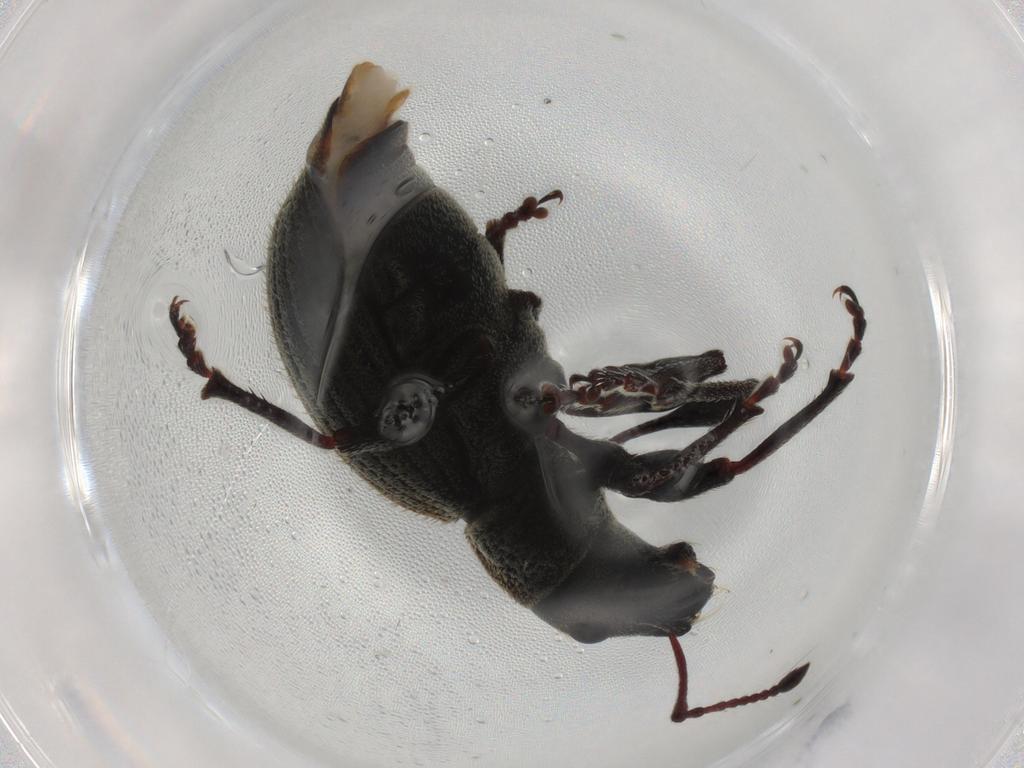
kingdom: Animalia
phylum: Arthropoda
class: Insecta
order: Coleoptera
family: Curculionidae
